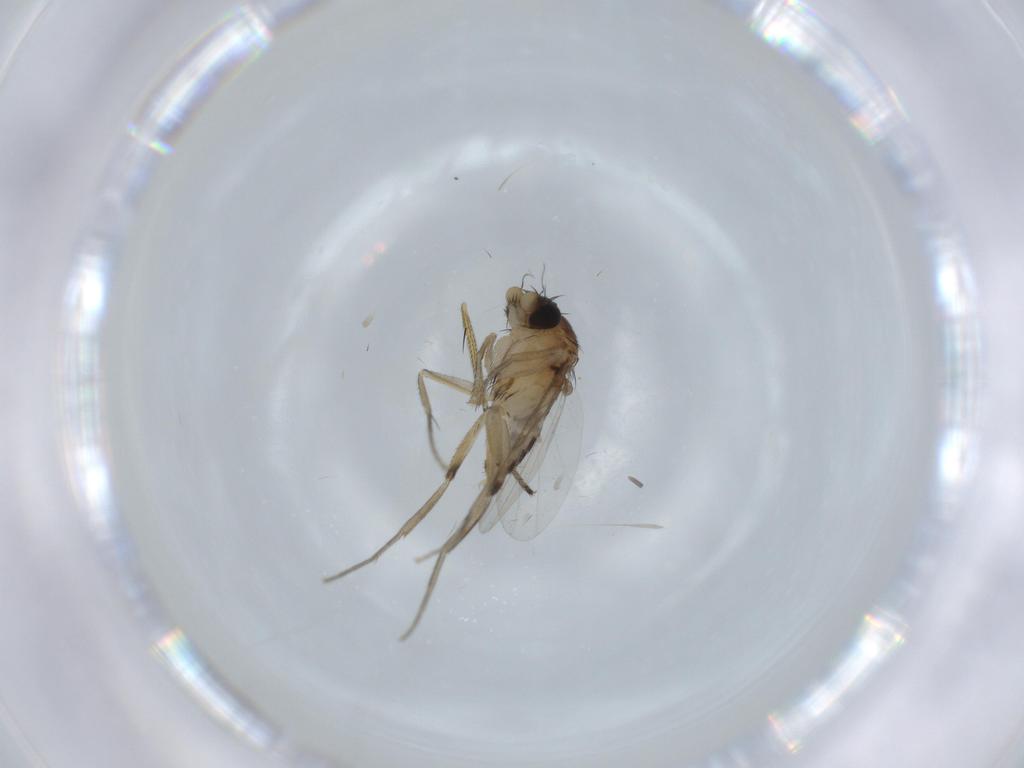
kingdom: Animalia
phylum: Arthropoda
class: Insecta
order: Diptera
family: Phoridae
